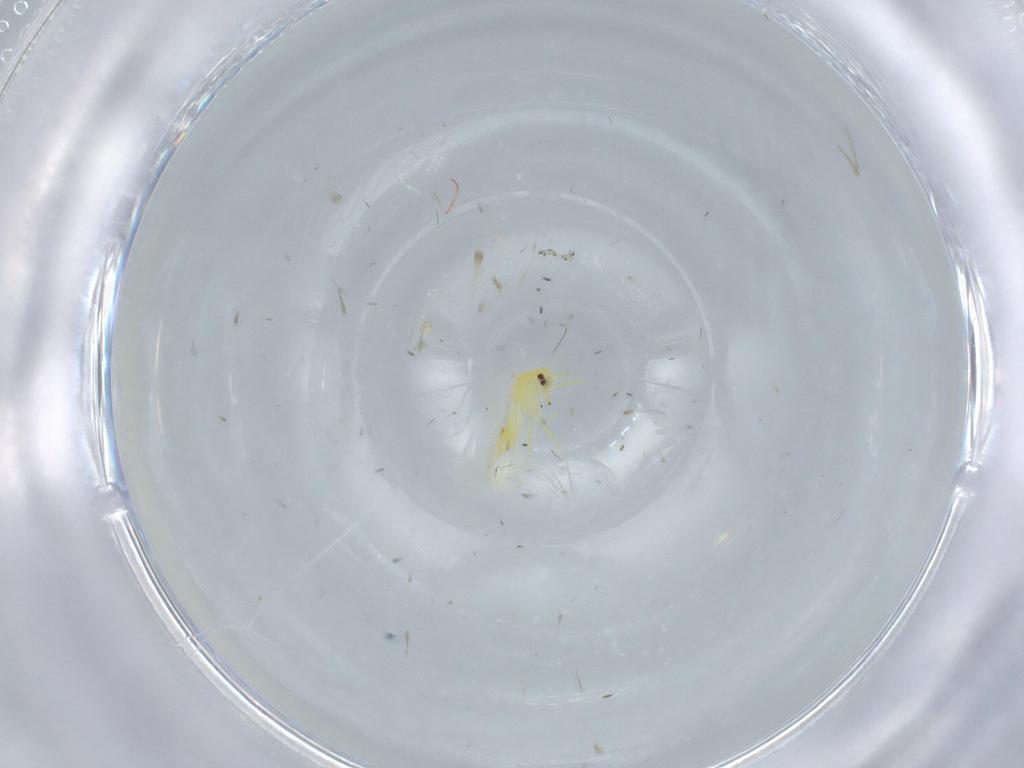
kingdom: Animalia
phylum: Arthropoda
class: Insecta
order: Hemiptera
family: Aleyrodidae
